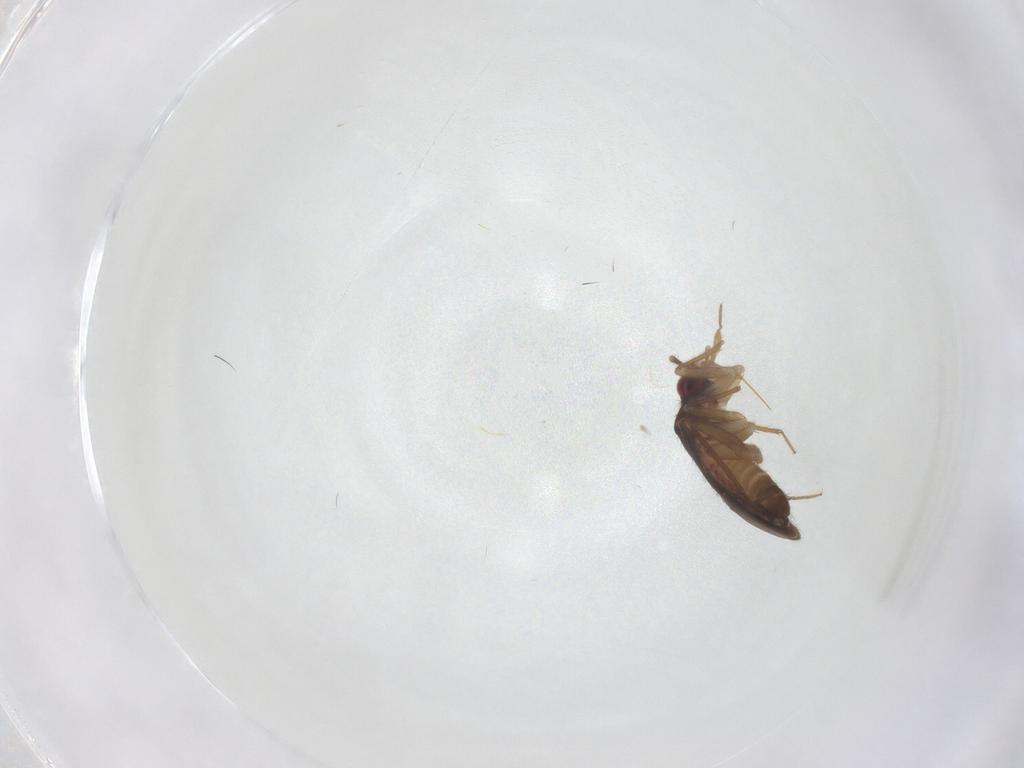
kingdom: Animalia
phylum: Arthropoda
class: Insecta
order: Hemiptera
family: Ceratocombidae
